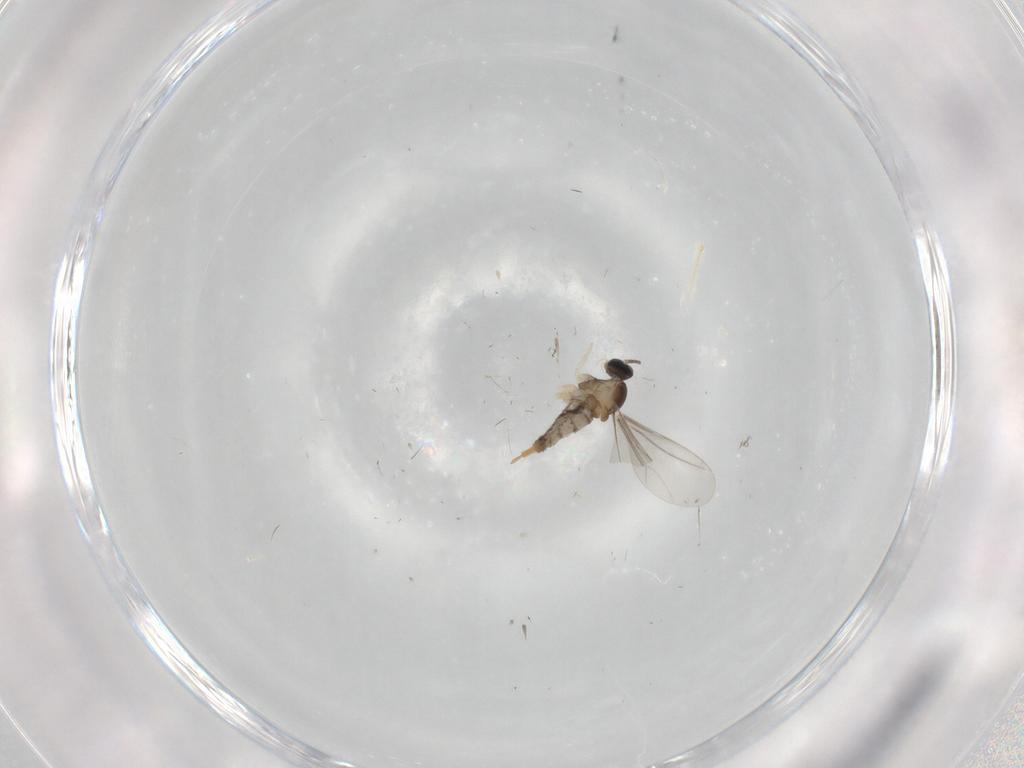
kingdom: Animalia
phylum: Arthropoda
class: Insecta
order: Diptera
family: Cecidomyiidae
